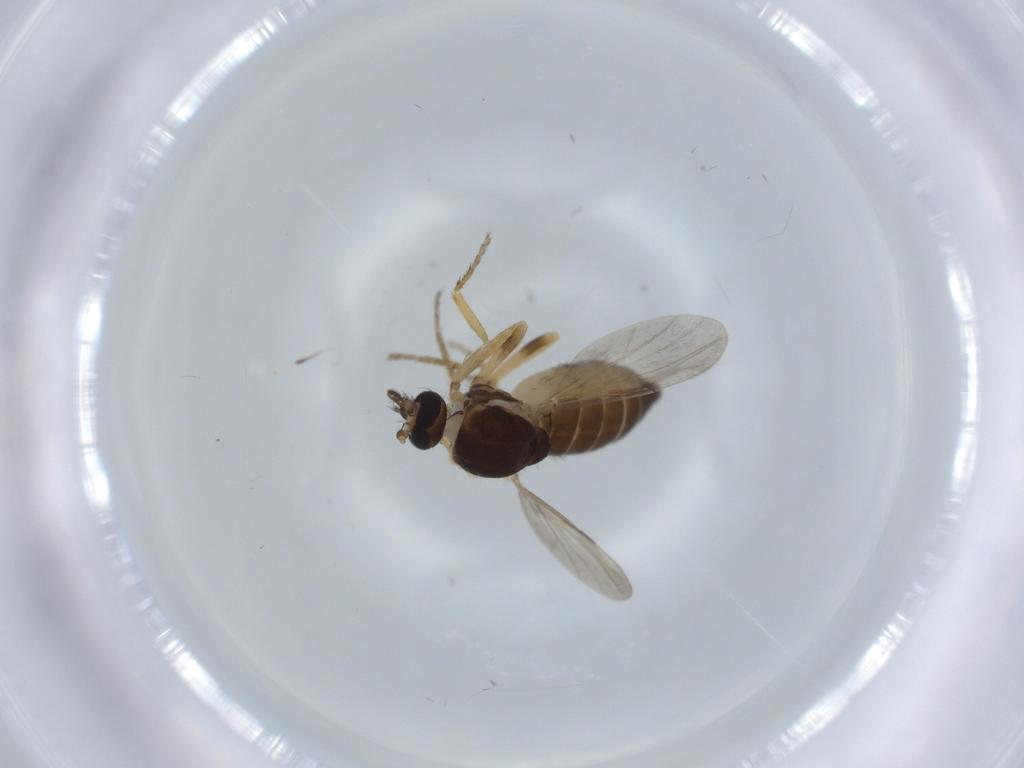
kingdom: Animalia
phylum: Arthropoda
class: Insecta
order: Diptera
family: Ceratopogonidae
